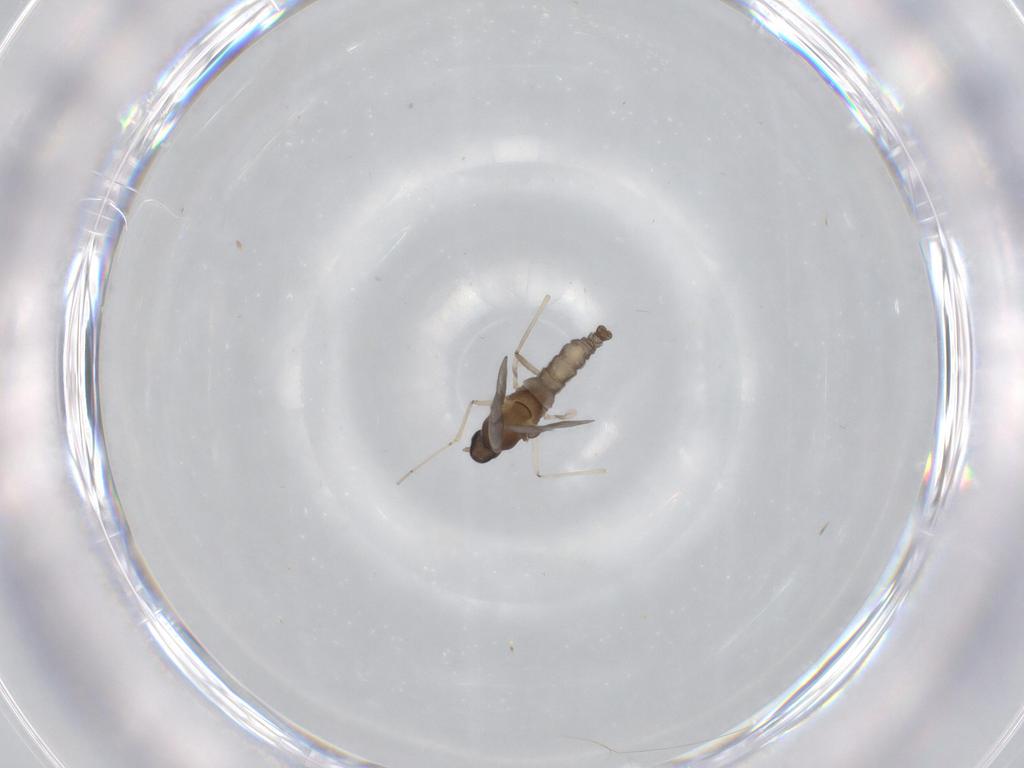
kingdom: Animalia
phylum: Arthropoda
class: Insecta
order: Diptera
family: Cecidomyiidae
